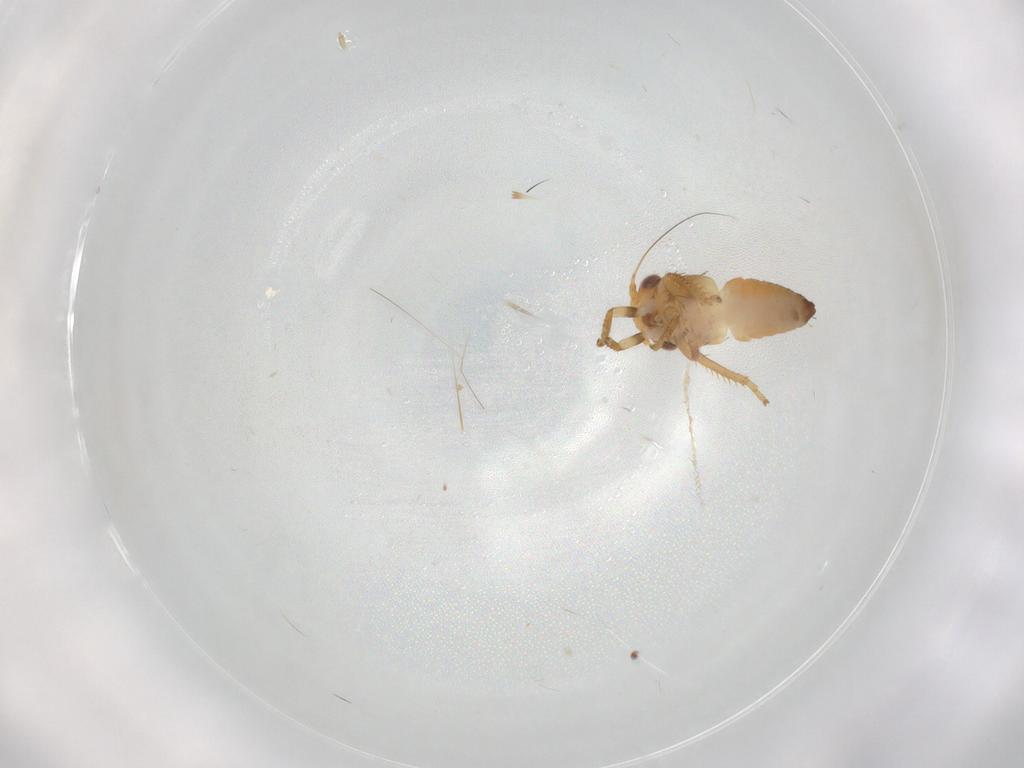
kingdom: Animalia
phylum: Arthropoda
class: Insecta
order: Hemiptera
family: Cicadellidae
